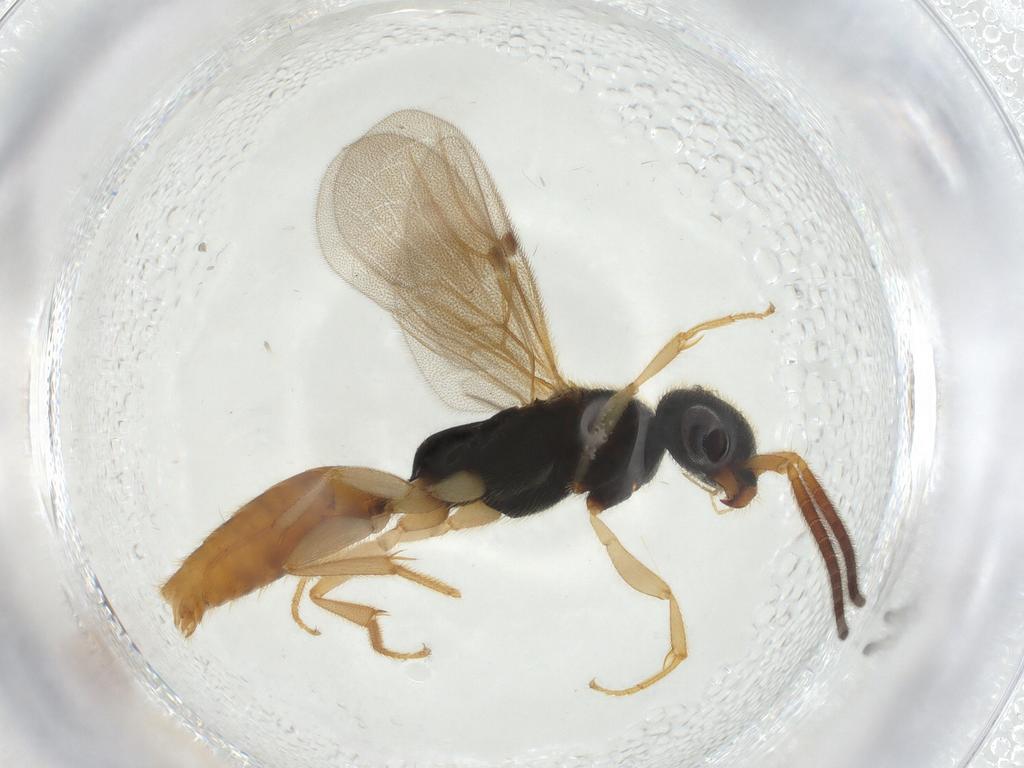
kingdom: Animalia
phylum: Arthropoda
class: Insecta
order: Hymenoptera
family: Bethylidae
